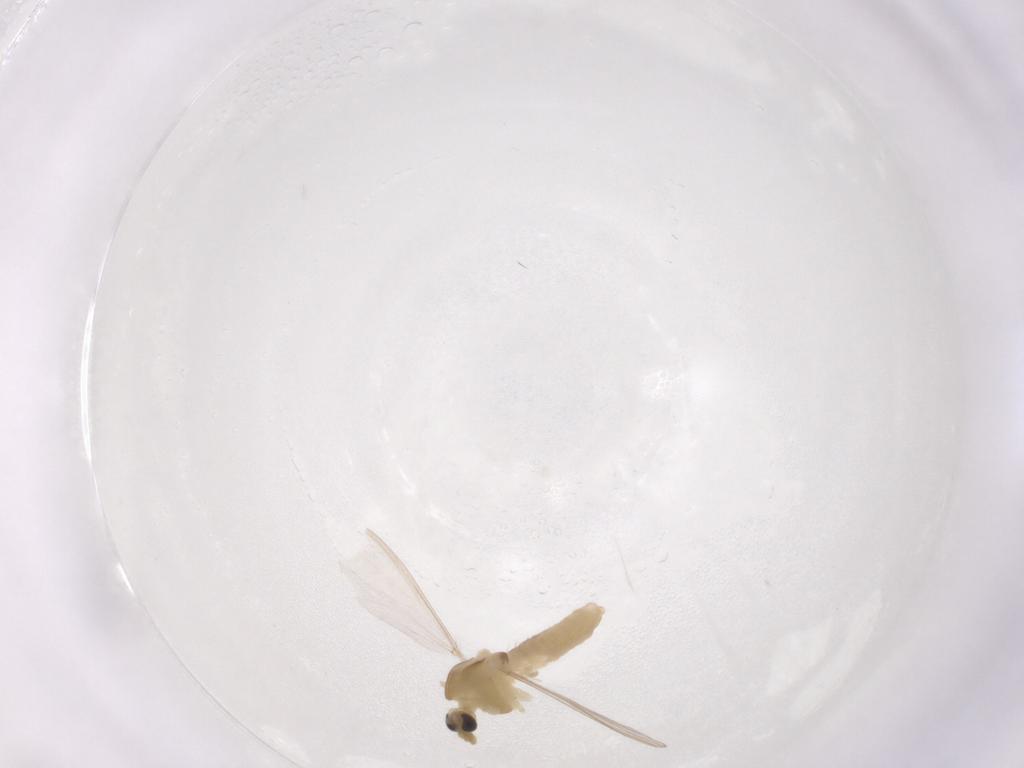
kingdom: Animalia
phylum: Arthropoda
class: Insecta
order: Diptera
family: Chironomidae
